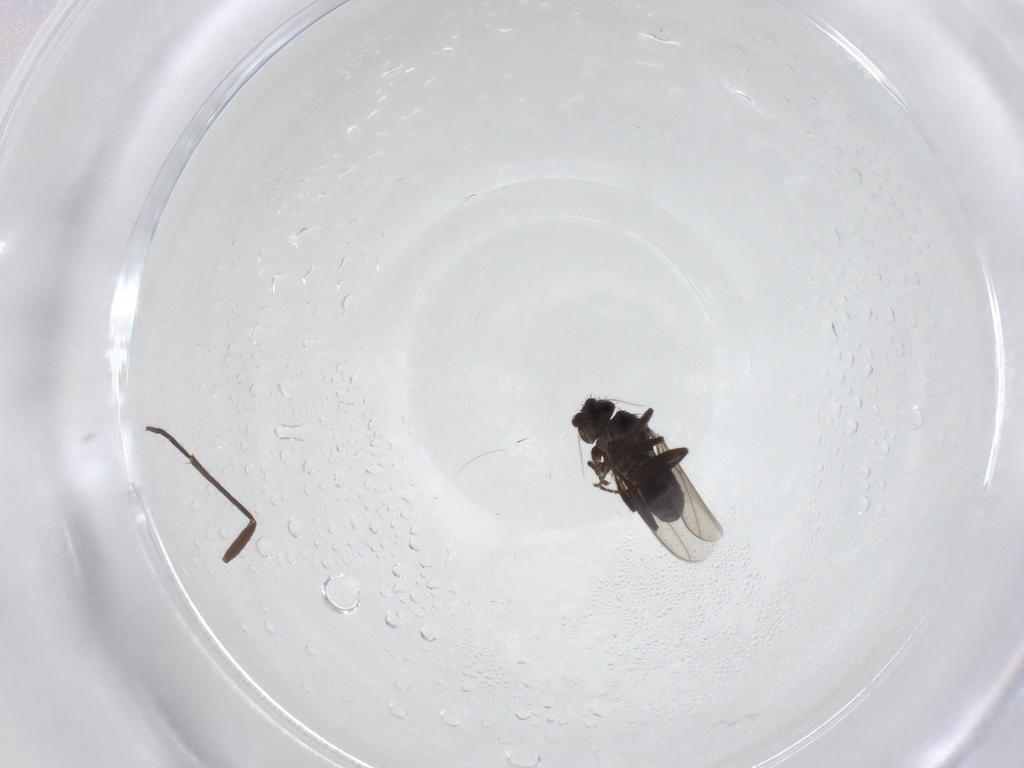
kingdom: Animalia
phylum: Arthropoda
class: Insecta
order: Diptera
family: Sciaridae
